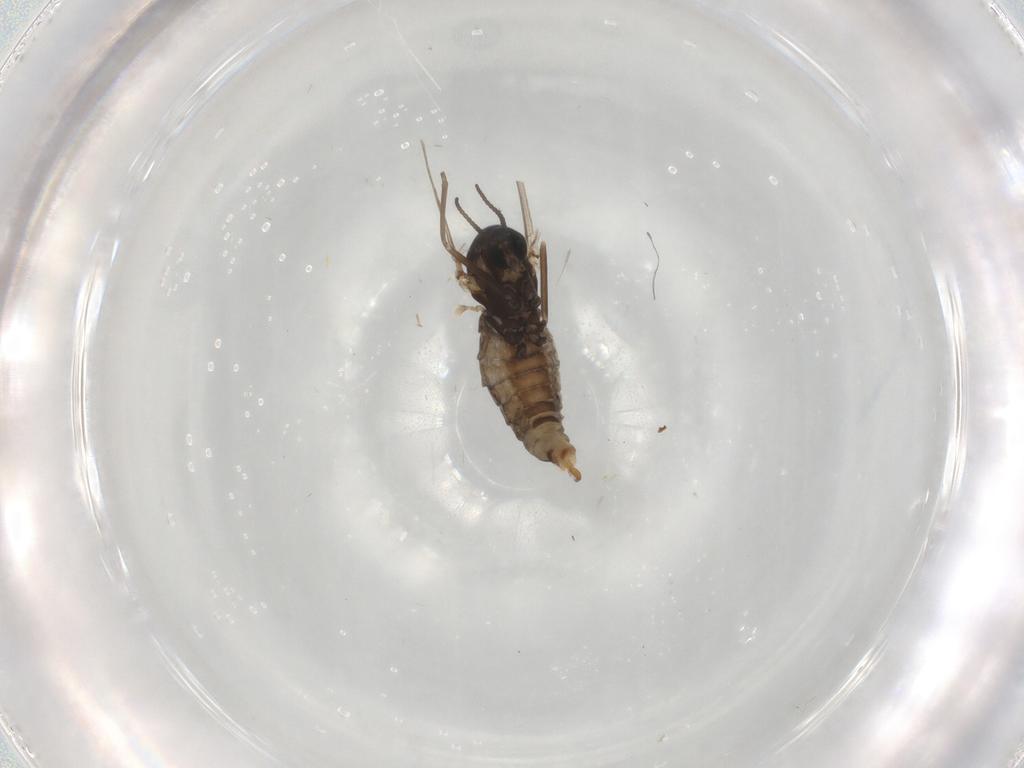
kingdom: Animalia
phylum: Arthropoda
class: Insecta
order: Diptera
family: Cecidomyiidae
